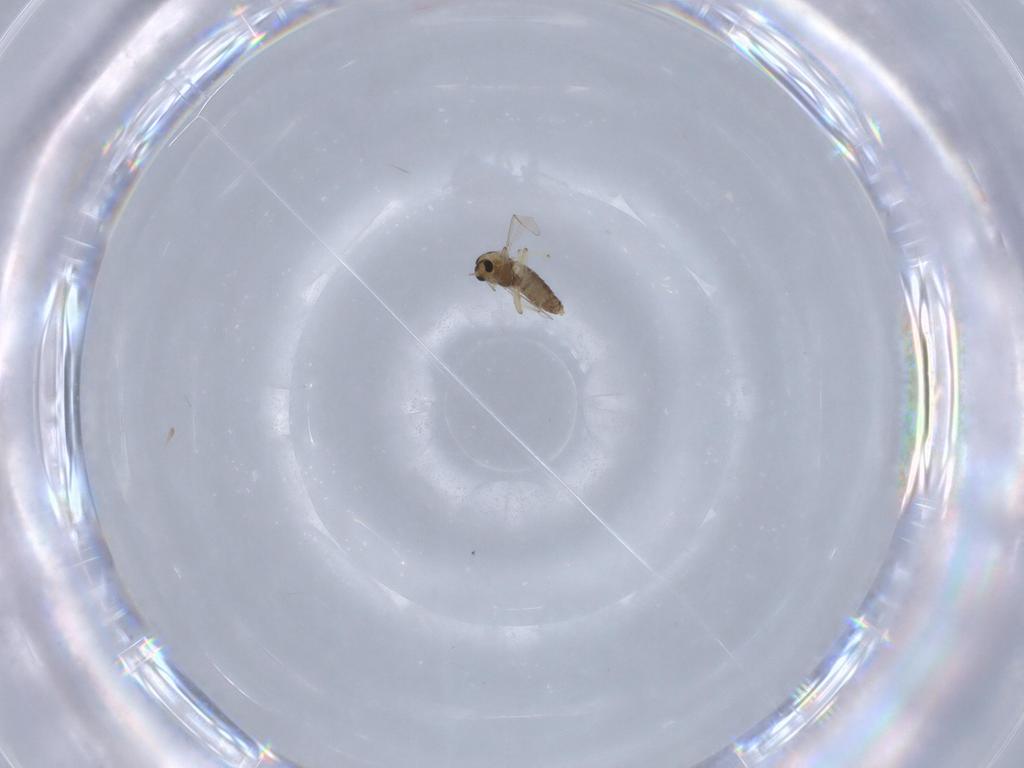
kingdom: Animalia
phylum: Arthropoda
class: Insecta
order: Diptera
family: Chironomidae
